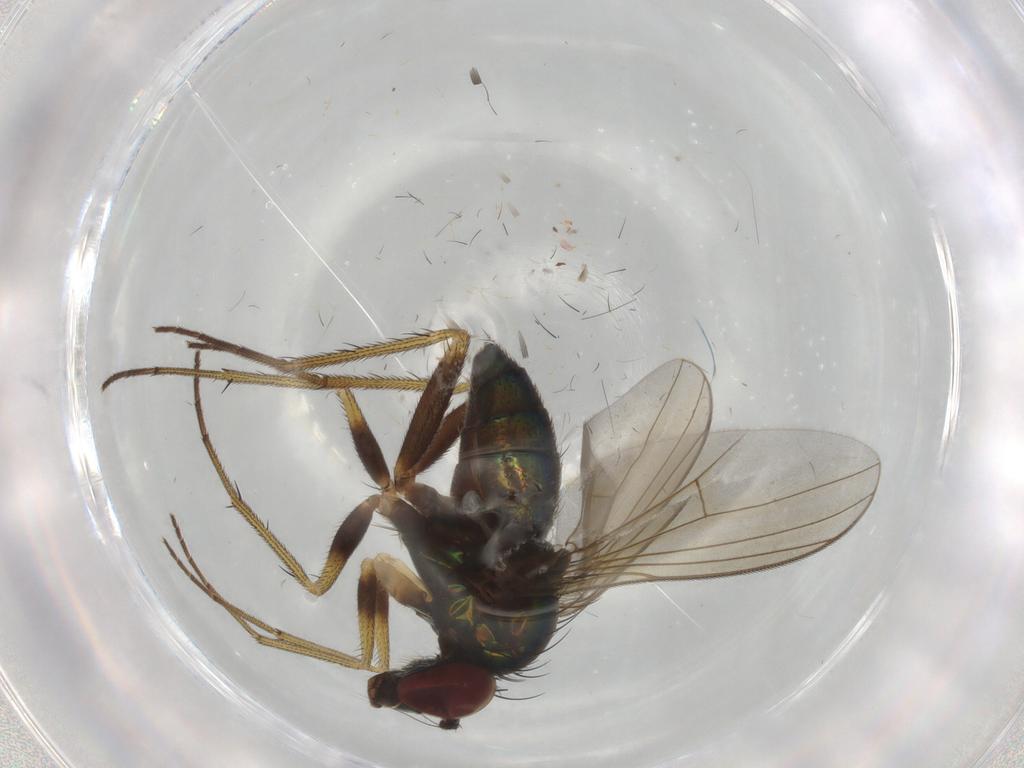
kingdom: Animalia
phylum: Arthropoda
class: Insecta
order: Diptera
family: Dolichopodidae
